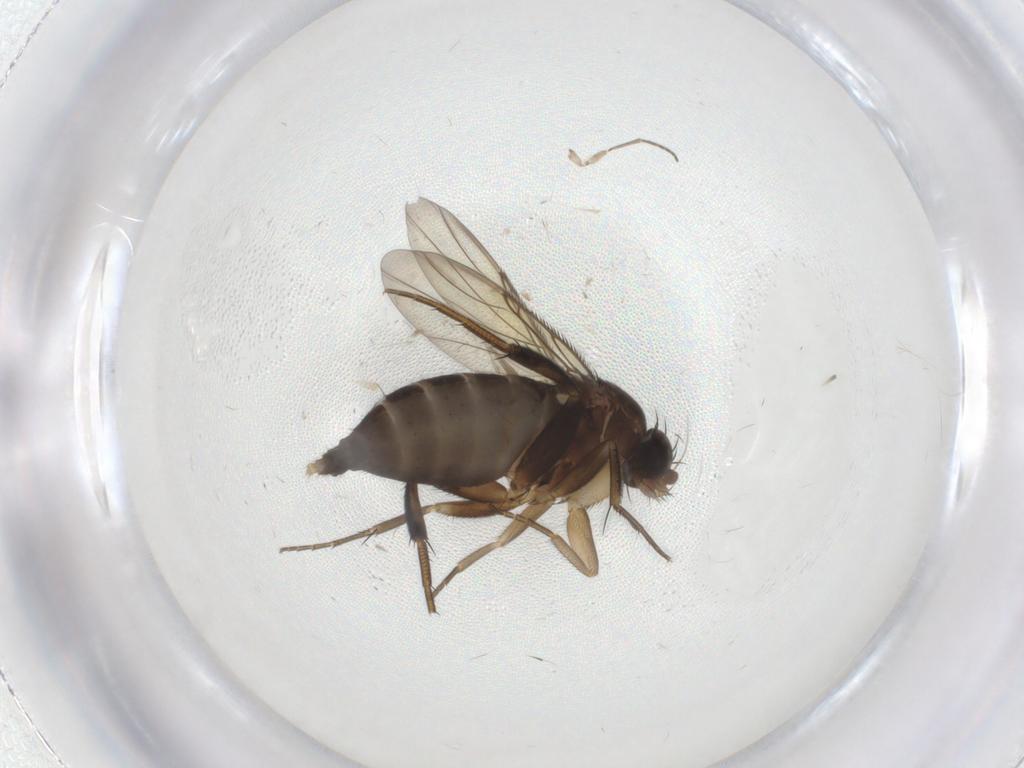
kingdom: Animalia
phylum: Arthropoda
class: Insecta
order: Diptera
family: Phoridae
